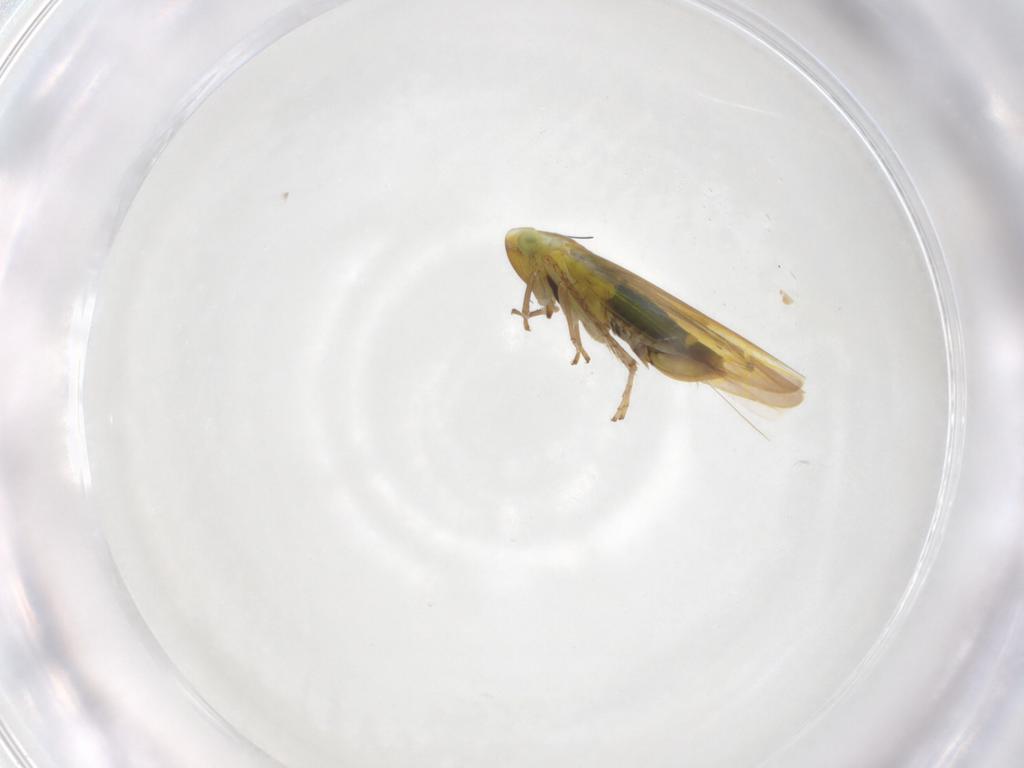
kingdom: Animalia
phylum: Arthropoda
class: Insecta
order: Hemiptera
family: Cicadellidae
